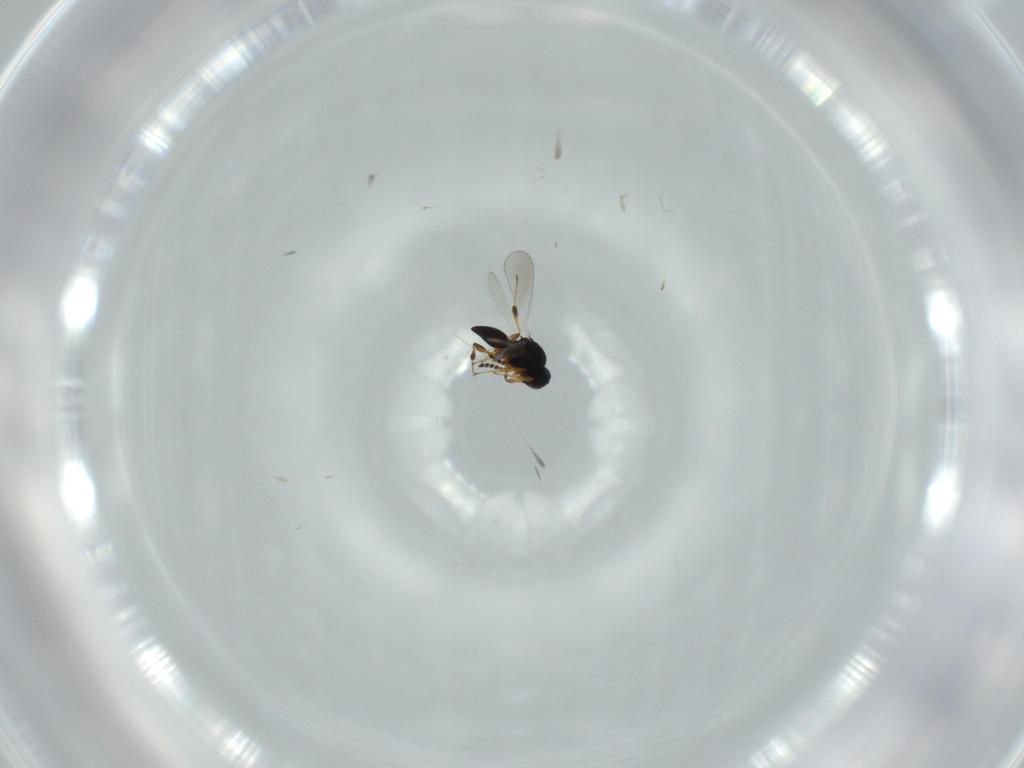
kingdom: Animalia
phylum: Arthropoda
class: Insecta
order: Hymenoptera
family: Platygastridae
